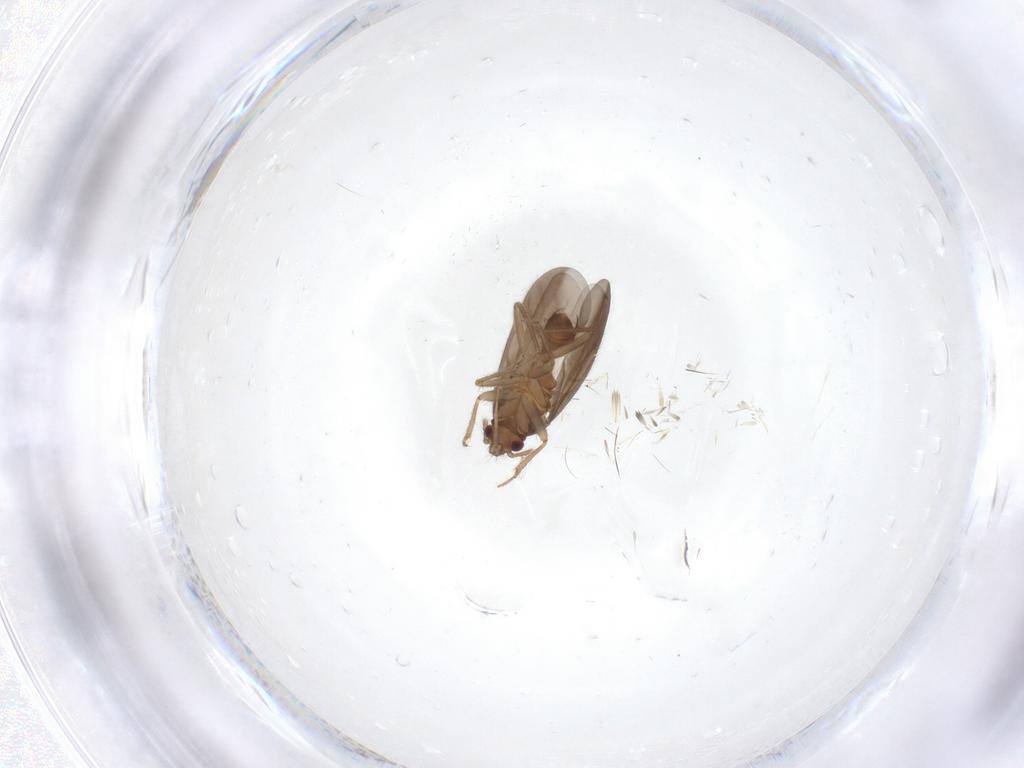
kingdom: Animalia
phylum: Arthropoda
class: Insecta
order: Hemiptera
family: Ceratocombidae
